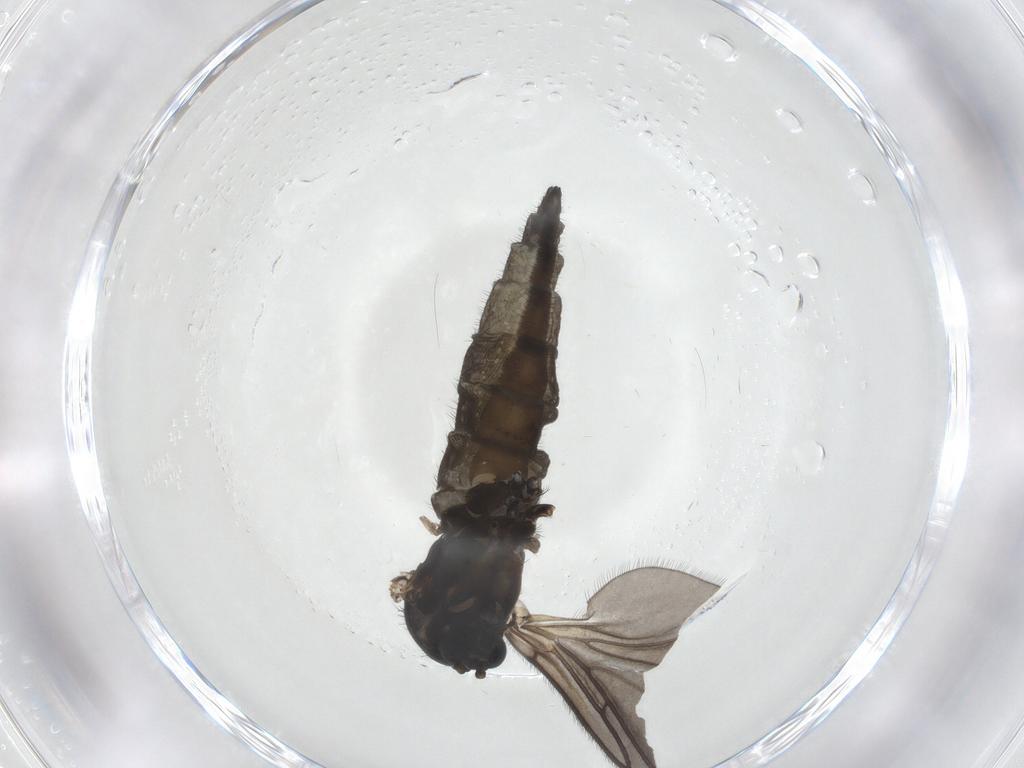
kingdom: Animalia
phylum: Arthropoda
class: Insecta
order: Diptera
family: Sciaridae
